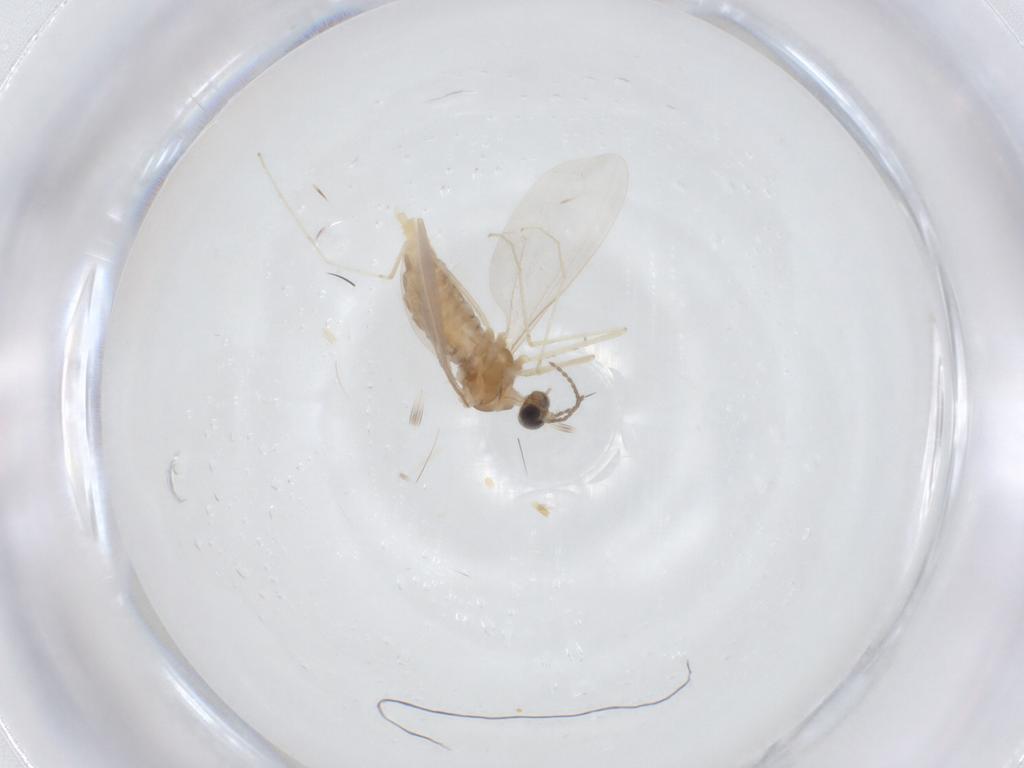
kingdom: Animalia
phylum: Arthropoda
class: Insecta
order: Diptera
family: Cecidomyiidae
